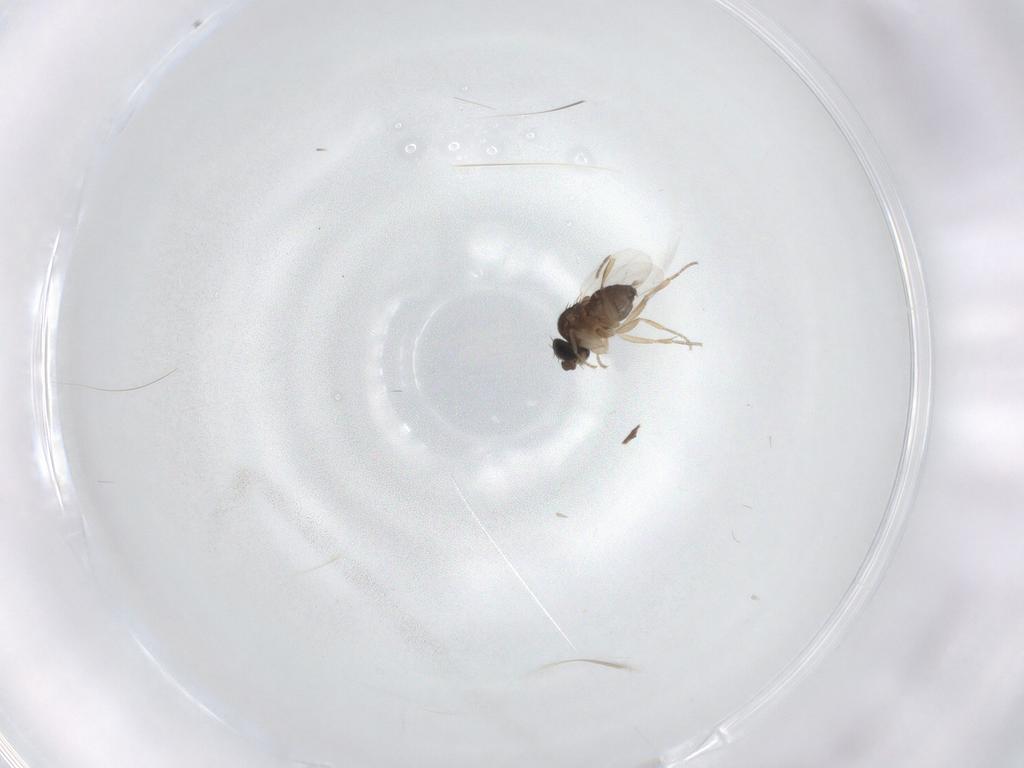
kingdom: Animalia
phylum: Arthropoda
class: Insecta
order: Diptera
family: Phoridae
